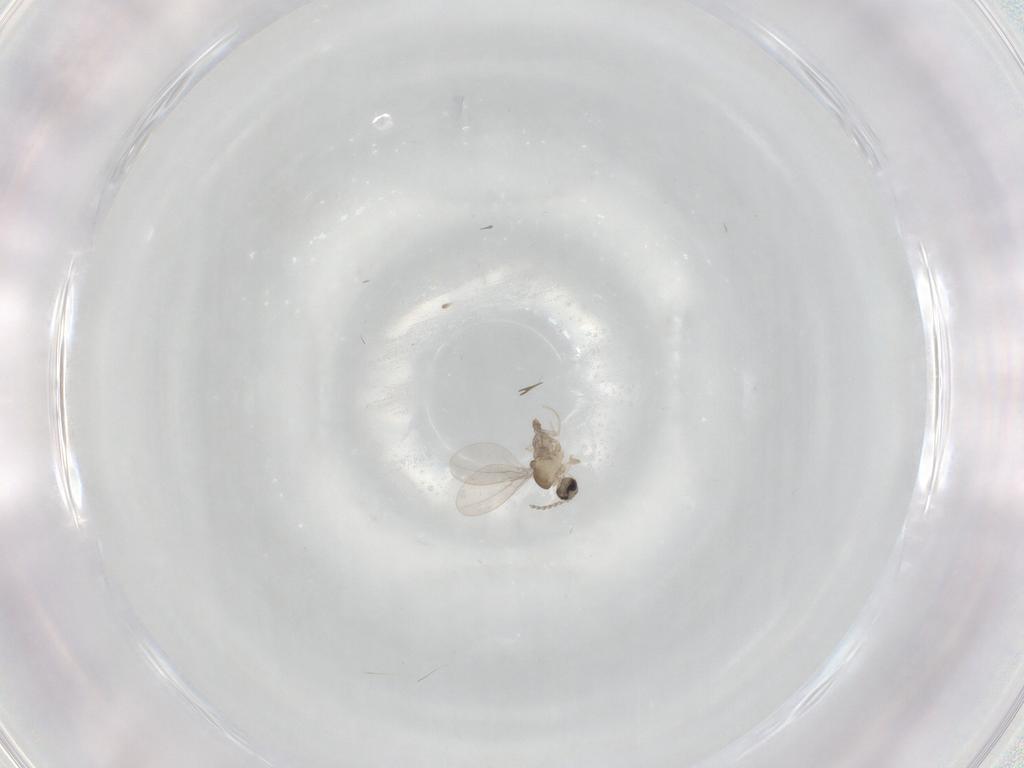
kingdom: Animalia
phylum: Arthropoda
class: Insecta
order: Diptera
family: Cecidomyiidae
